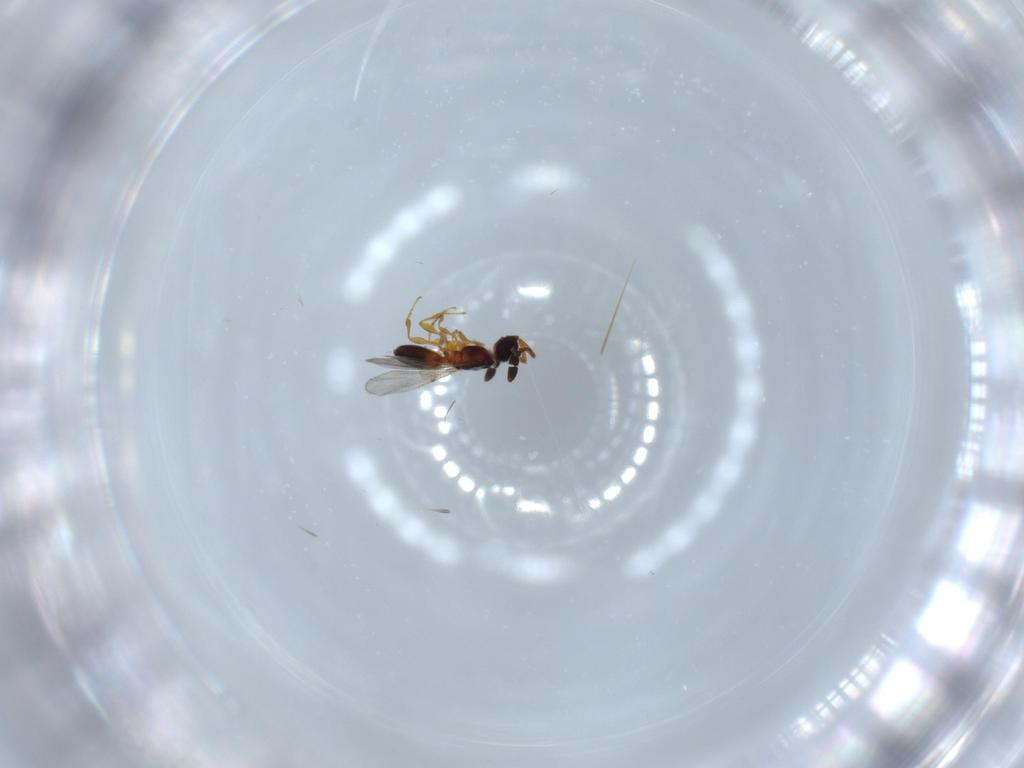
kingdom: Animalia
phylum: Arthropoda
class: Insecta
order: Hymenoptera
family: Diapriidae
